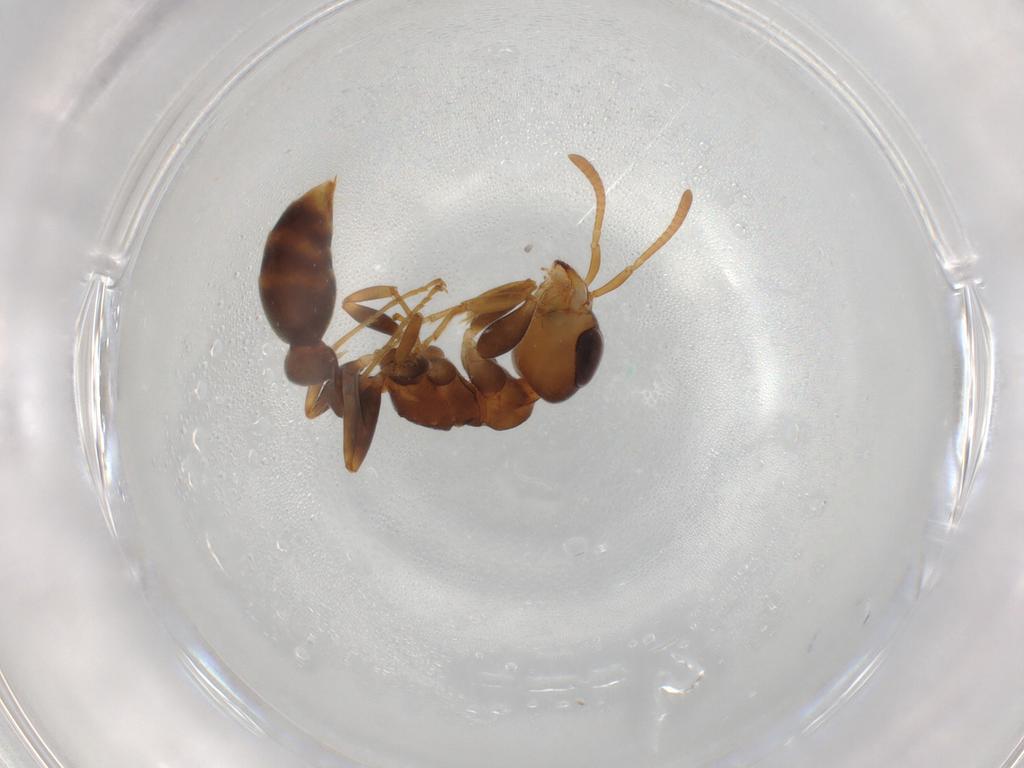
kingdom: Animalia
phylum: Arthropoda
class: Insecta
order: Hymenoptera
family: Formicidae
